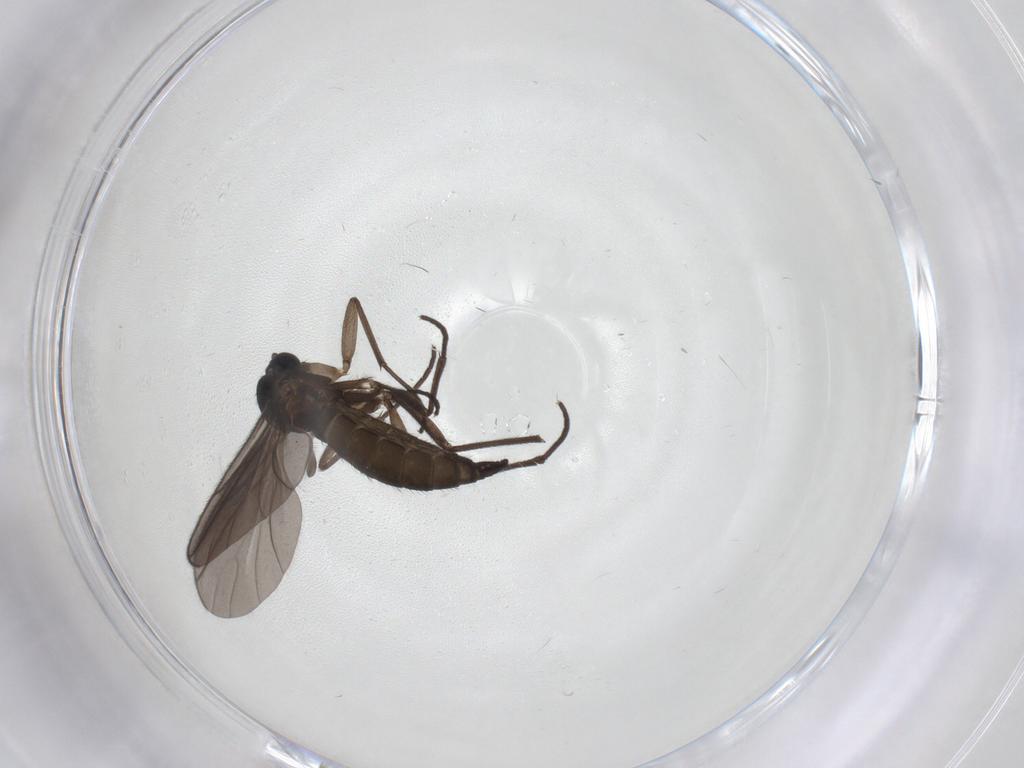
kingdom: Animalia
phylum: Arthropoda
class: Insecta
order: Diptera
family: Sciaridae
